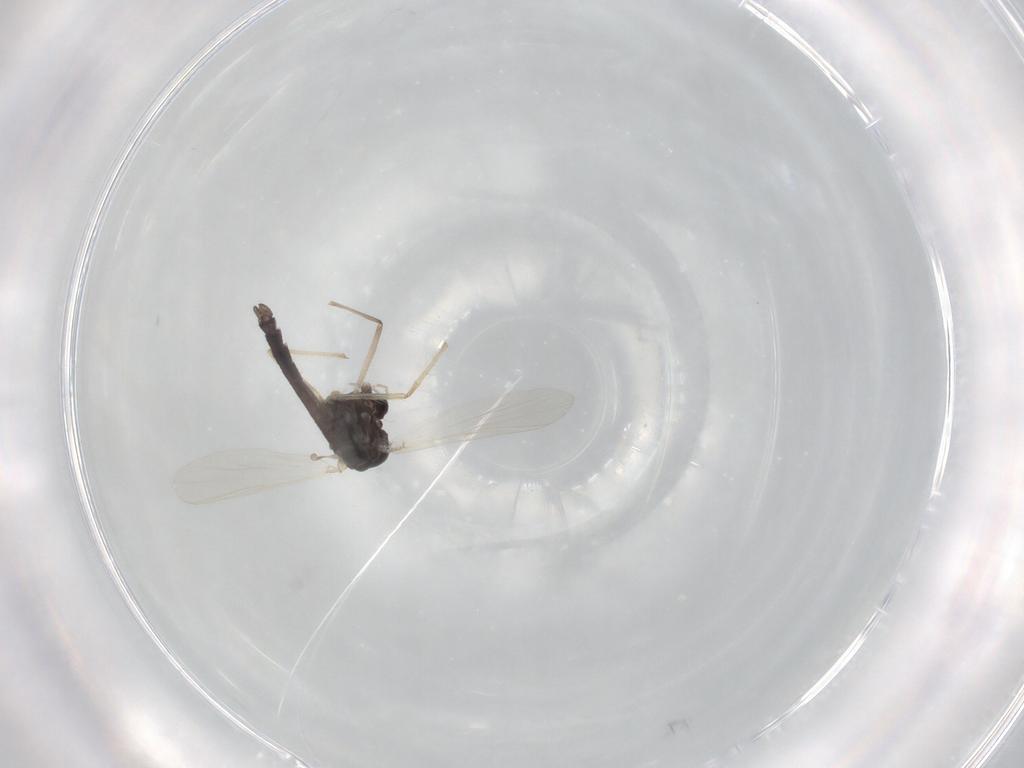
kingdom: Animalia
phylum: Arthropoda
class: Insecta
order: Diptera
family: Chironomidae
